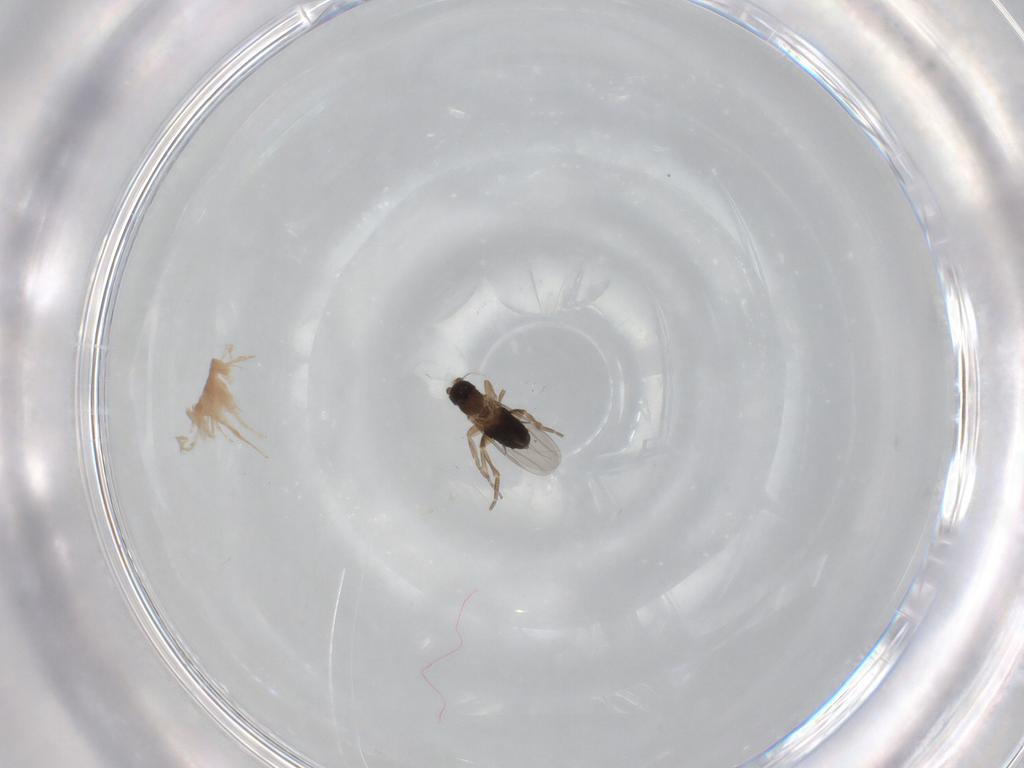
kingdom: Animalia
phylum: Arthropoda
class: Insecta
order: Diptera
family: Phoridae
